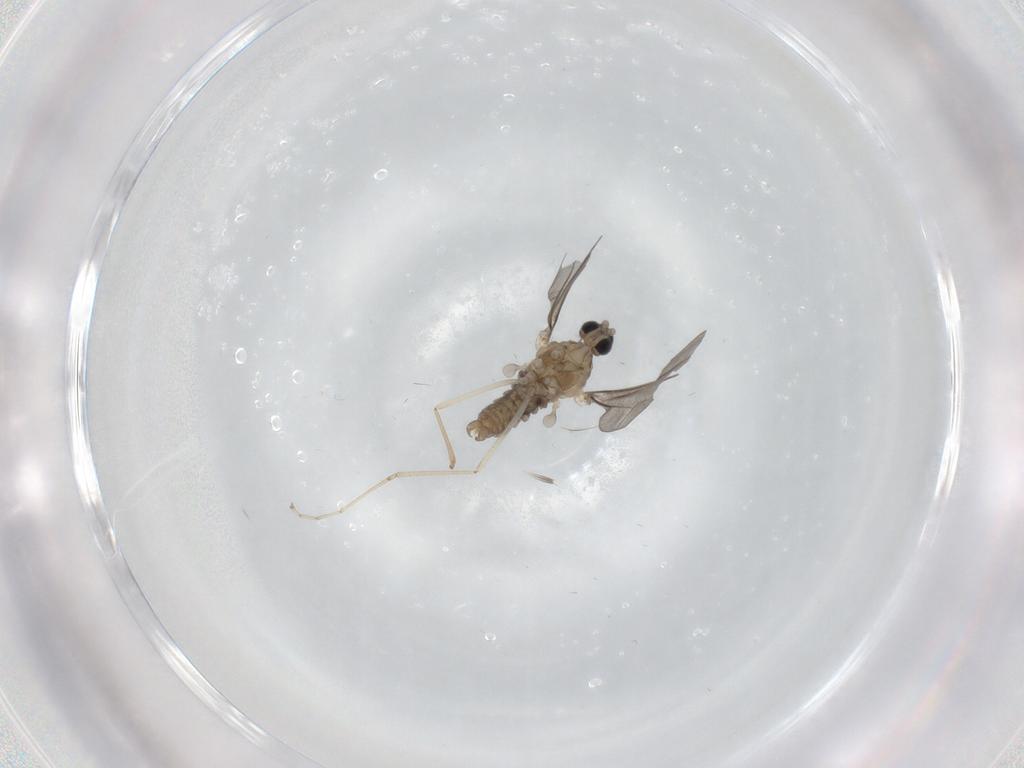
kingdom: Animalia
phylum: Arthropoda
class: Insecta
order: Diptera
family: Cecidomyiidae
